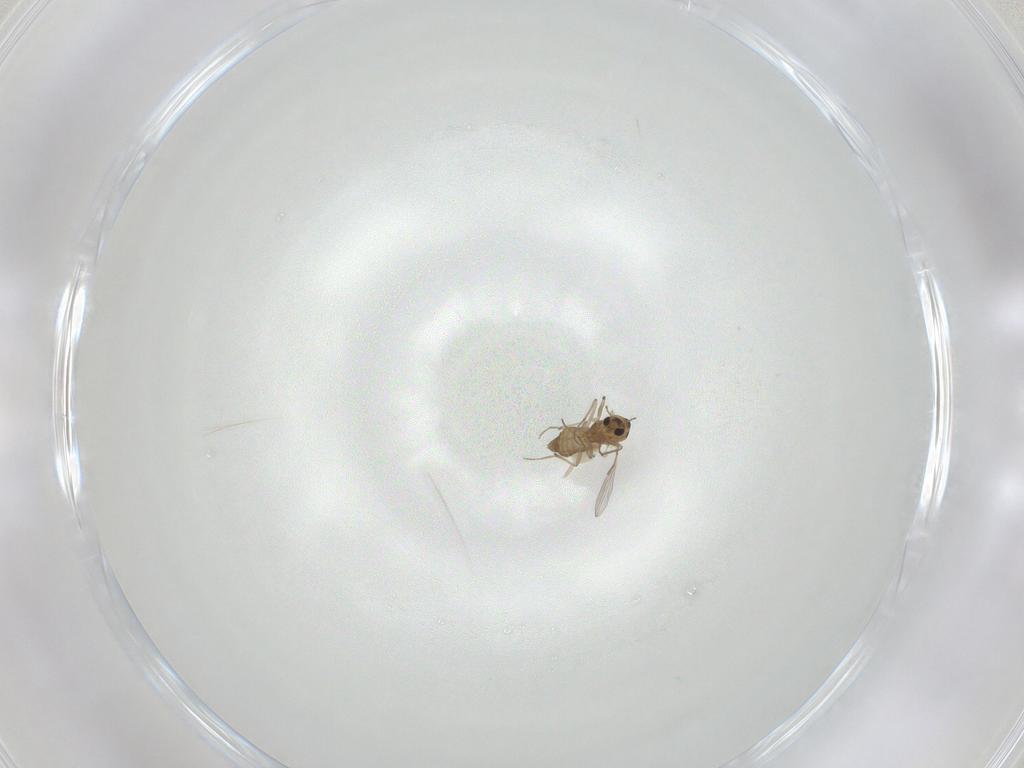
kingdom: Animalia
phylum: Arthropoda
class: Insecta
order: Diptera
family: Chironomidae
